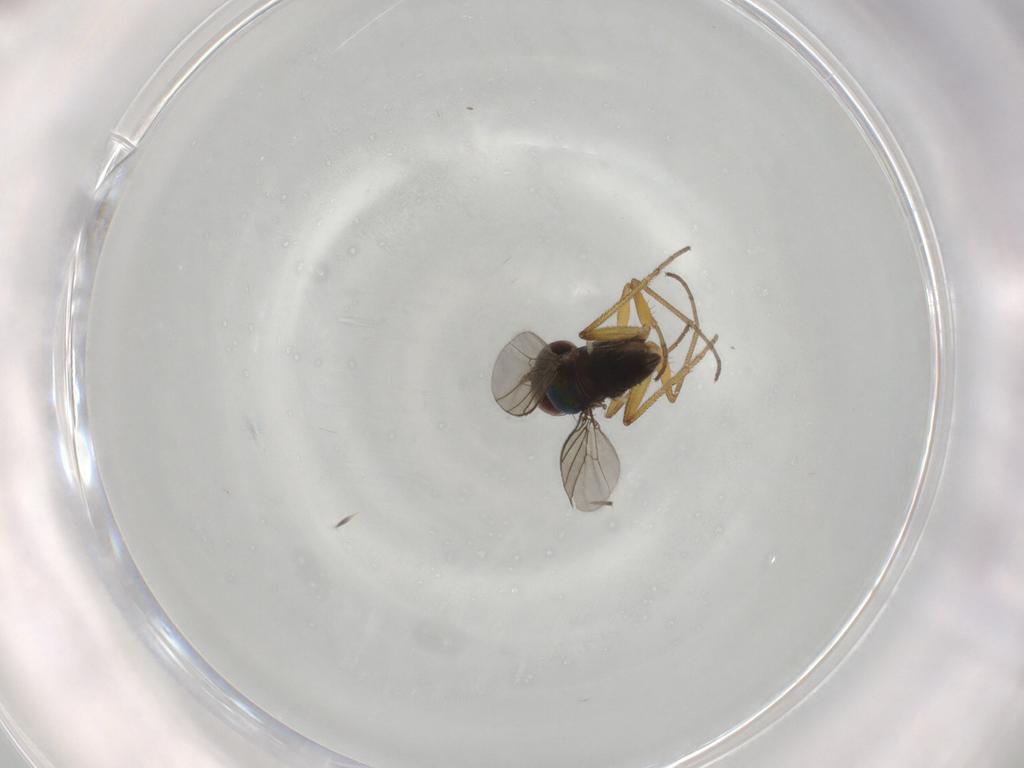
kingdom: Animalia
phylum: Arthropoda
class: Insecta
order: Diptera
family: Dolichopodidae
